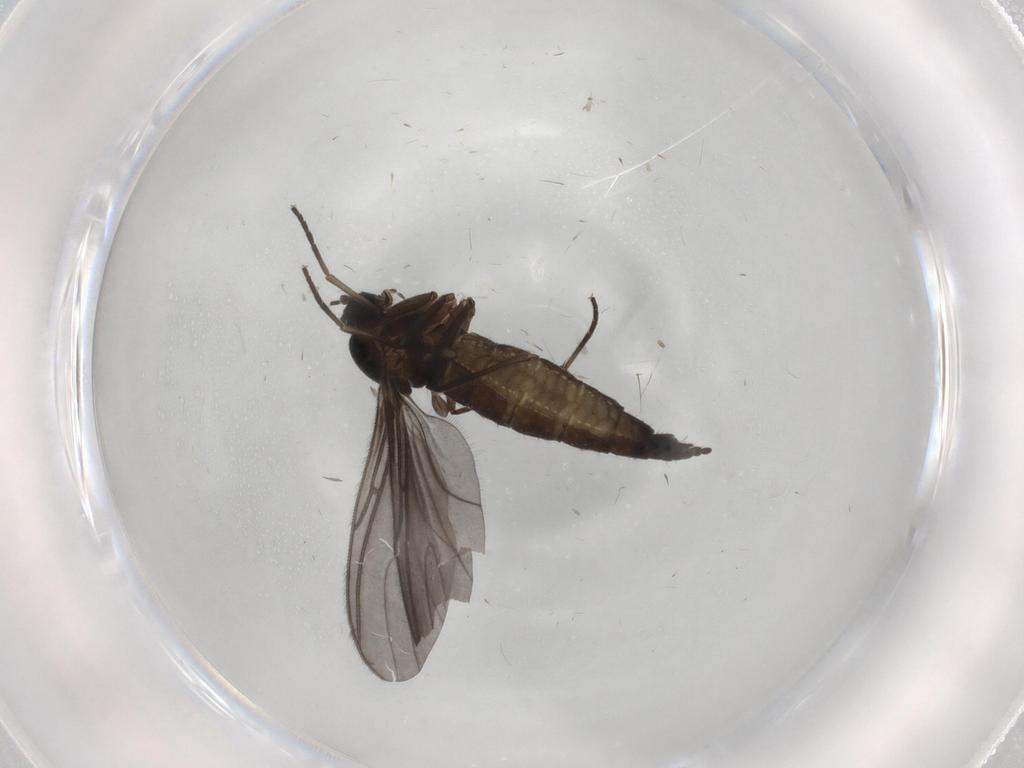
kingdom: Animalia
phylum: Arthropoda
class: Insecta
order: Diptera
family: Sciaridae
